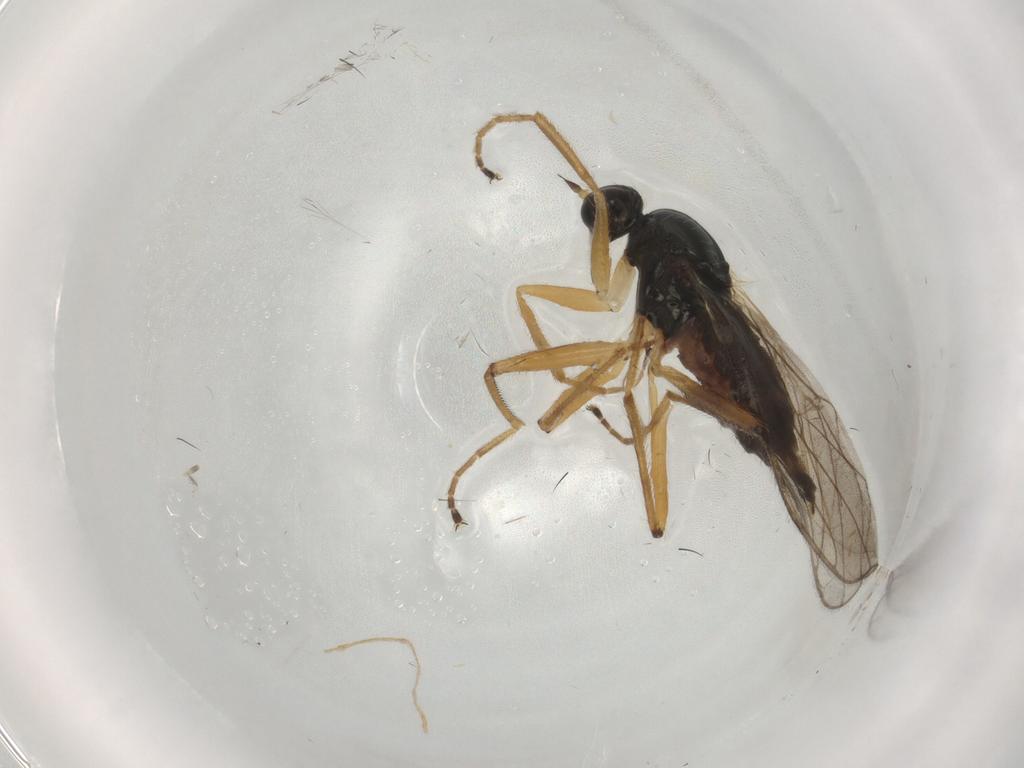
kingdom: Animalia
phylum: Arthropoda
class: Insecta
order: Diptera
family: Hybotidae
